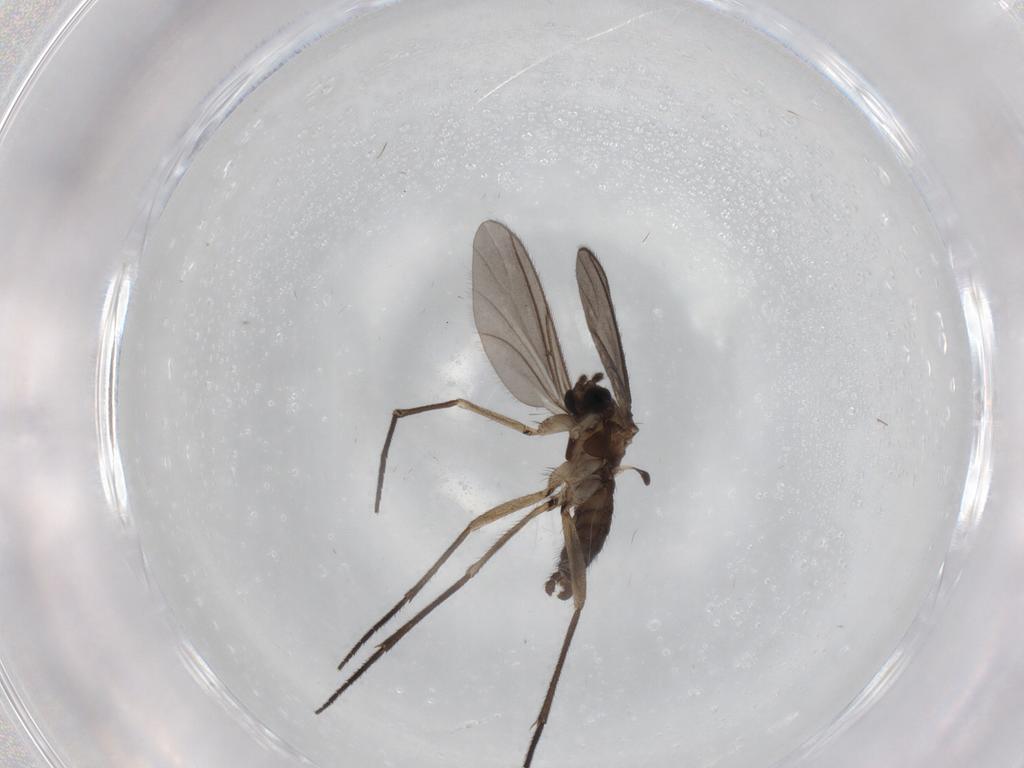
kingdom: Animalia
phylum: Arthropoda
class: Insecta
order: Diptera
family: Sciaridae
